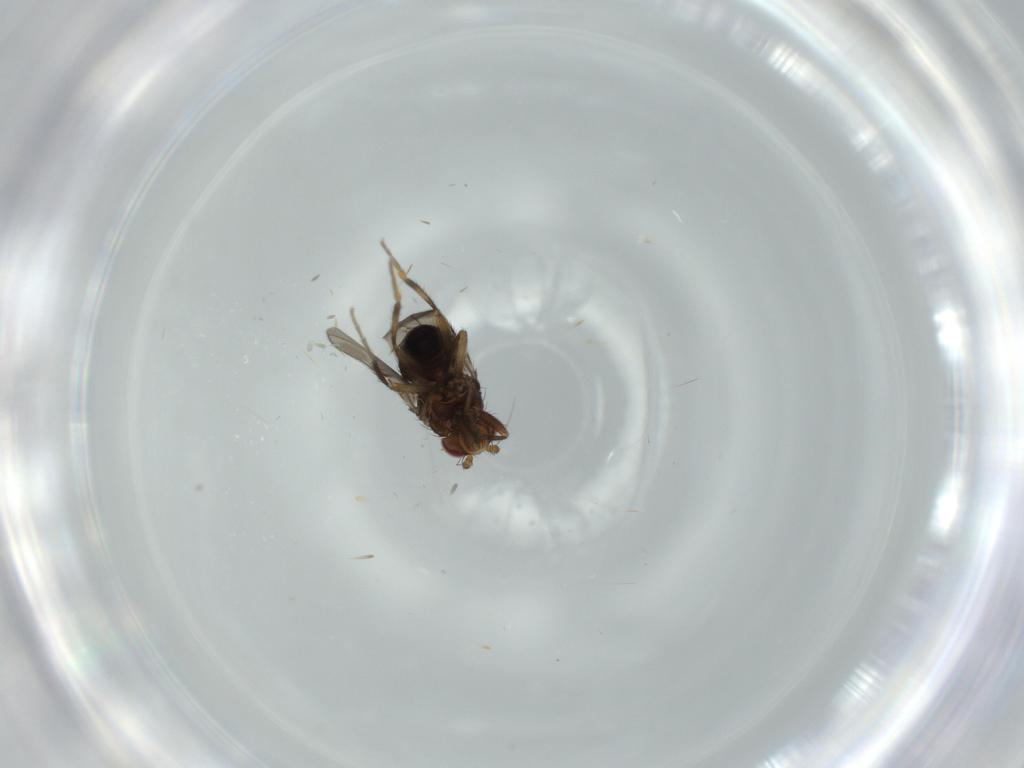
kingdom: Animalia
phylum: Arthropoda
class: Insecta
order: Diptera
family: Sphaeroceridae
